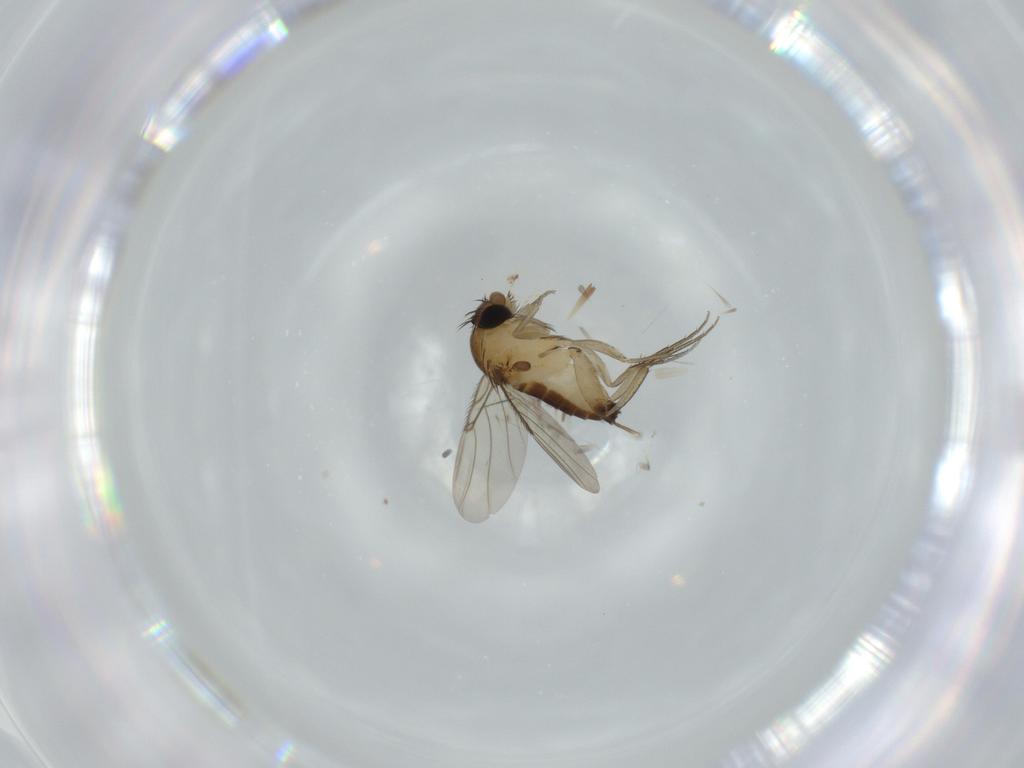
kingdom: Animalia
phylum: Arthropoda
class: Insecta
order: Diptera
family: Phoridae
